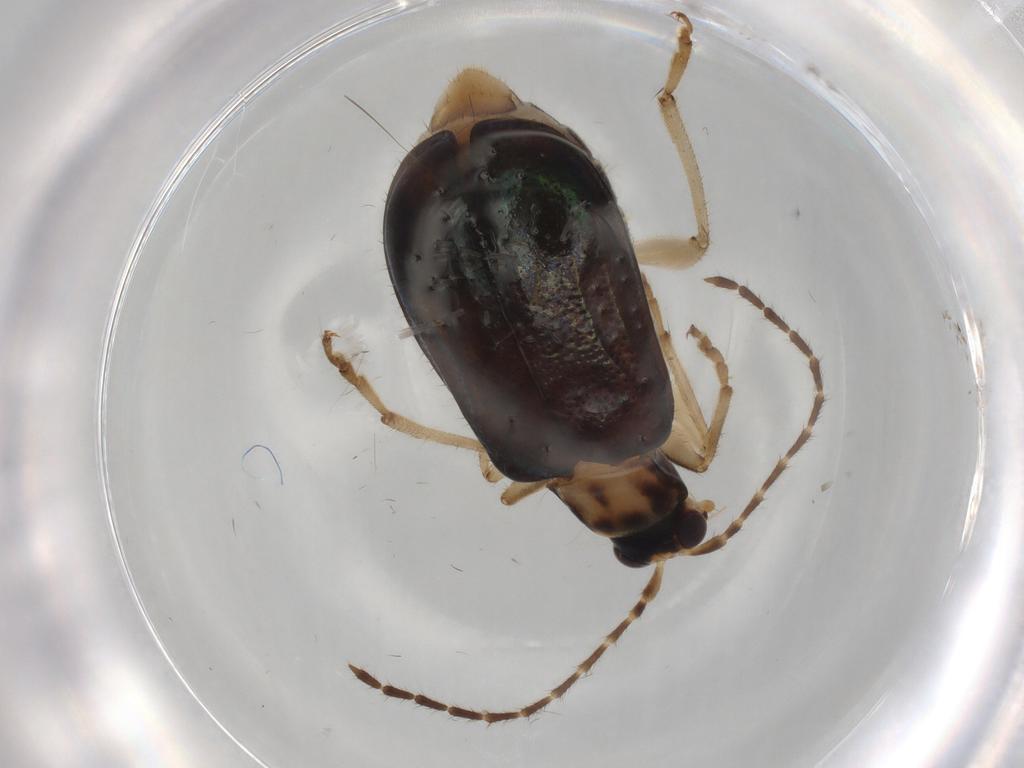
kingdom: Animalia
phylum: Arthropoda
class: Insecta
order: Coleoptera
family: Chrysomelidae
